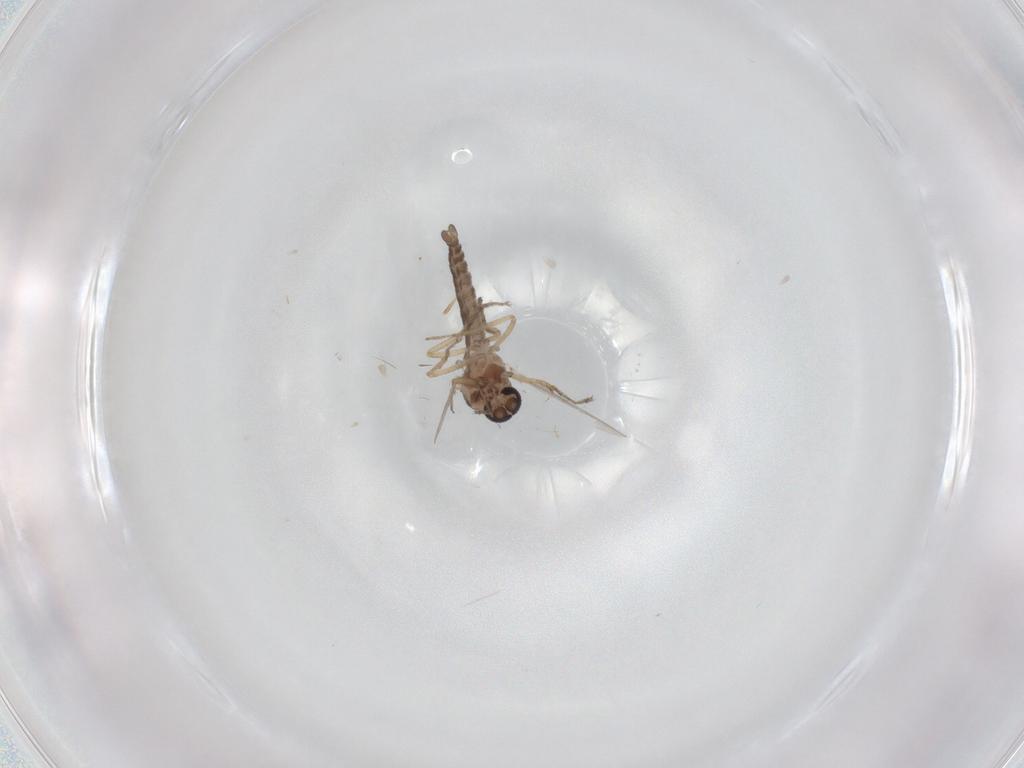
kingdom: Animalia
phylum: Arthropoda
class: Insecta
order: Diptera
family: Ceratopogonidae
